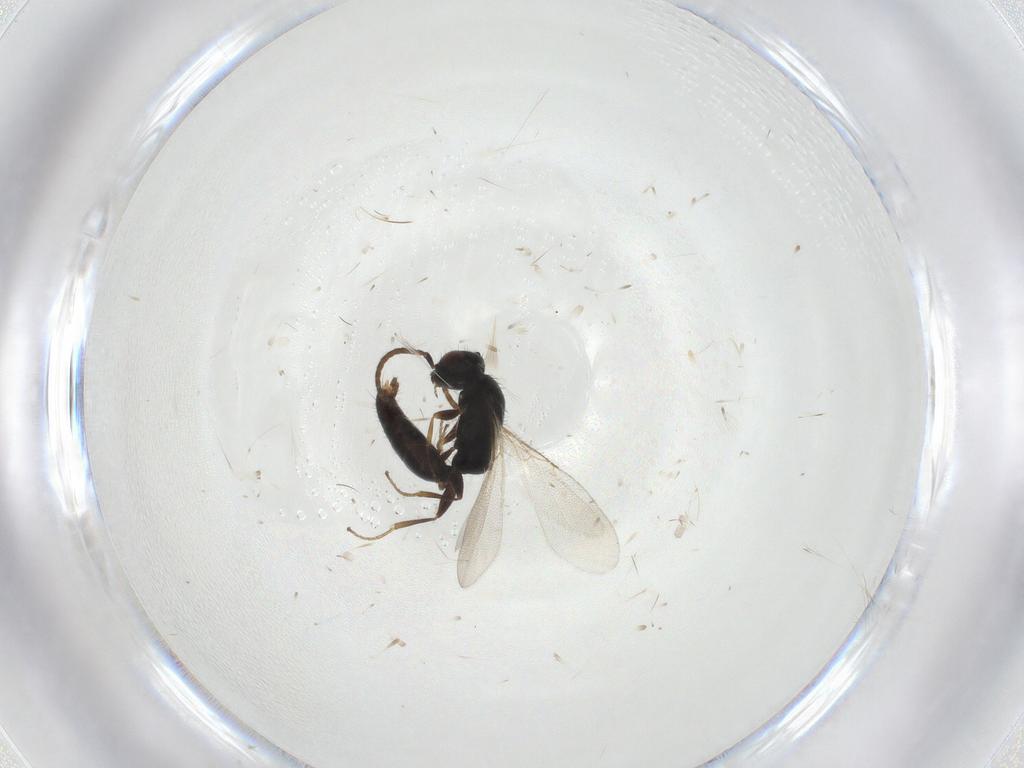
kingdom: Animalia
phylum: Arthropoda
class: Insecta
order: Hymenoptera
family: Bethylidae
